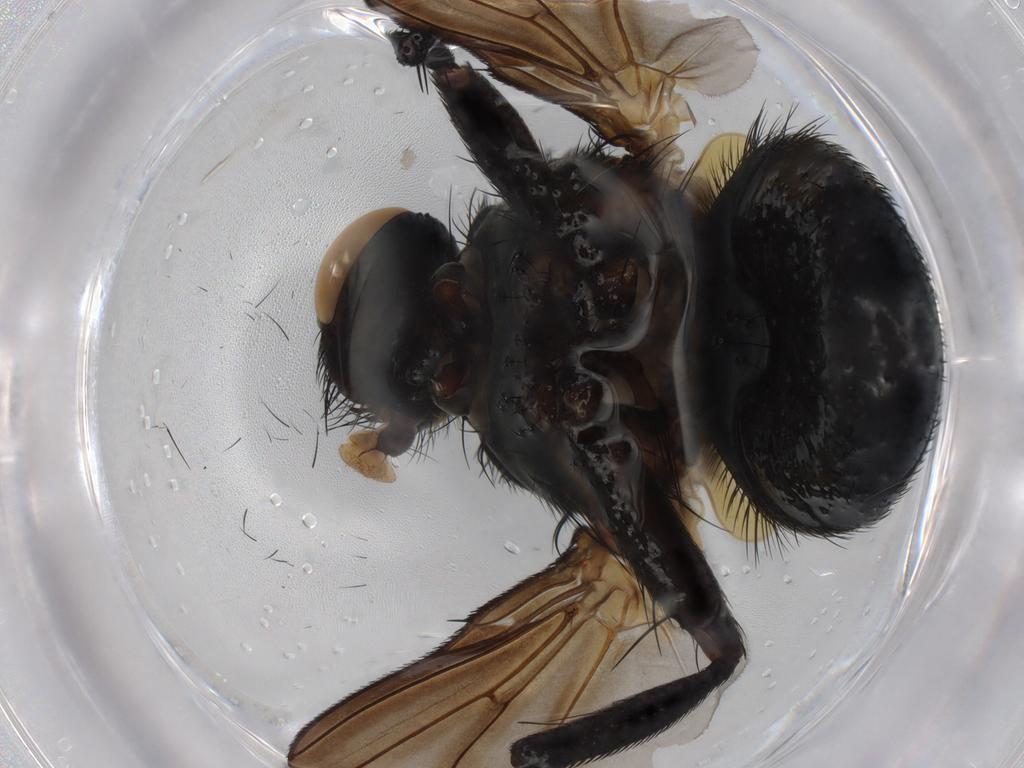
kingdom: Animalia
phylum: Arthropoda
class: Insecta
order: Diptera
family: Tachinidae
